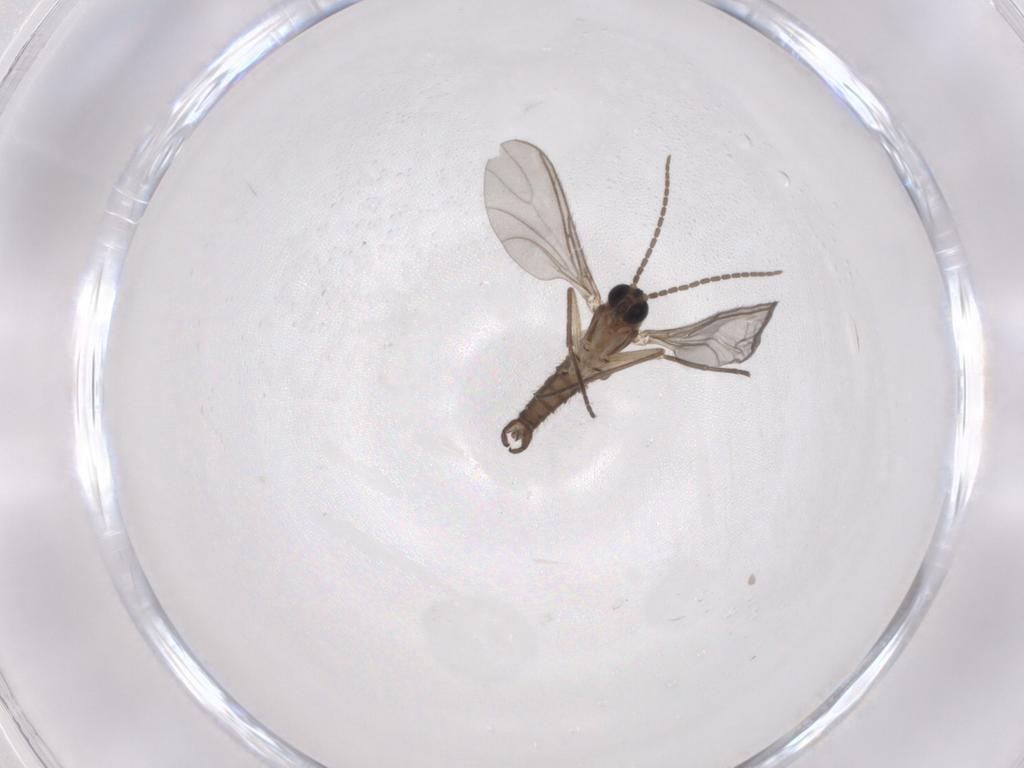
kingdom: Animalia
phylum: Arthropoda
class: Insecta
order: Diptera
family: Sciaridae
